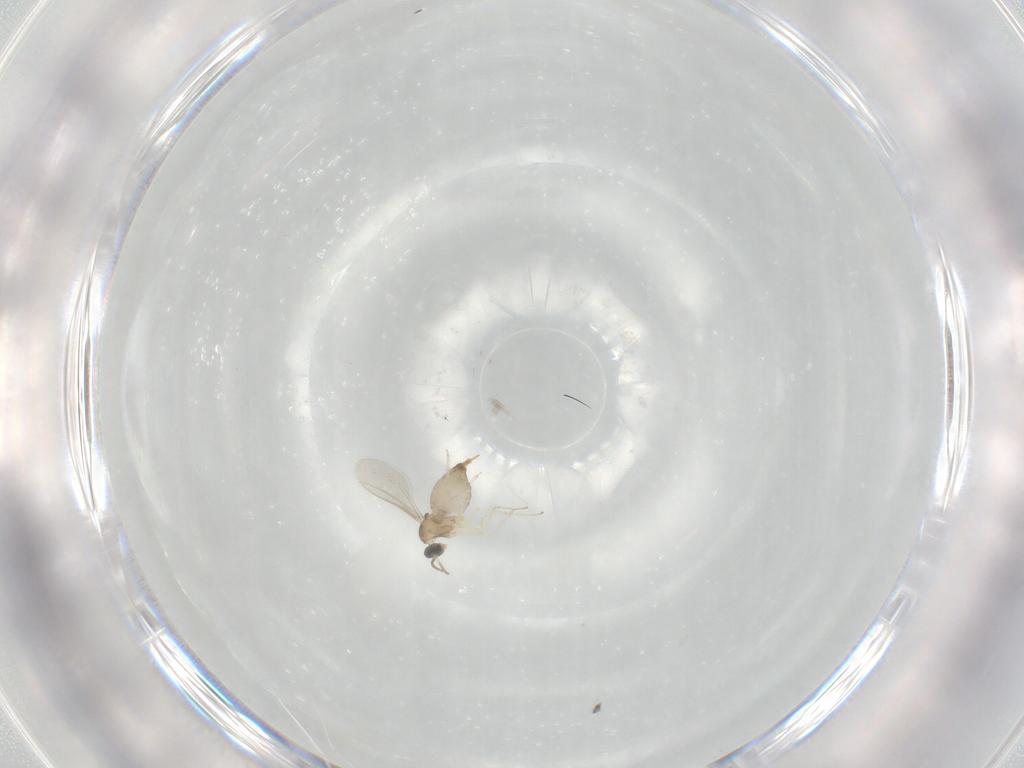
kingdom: Animalia
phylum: Arthropoda
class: Insecta
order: Diptera
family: Cecidomyiidae
